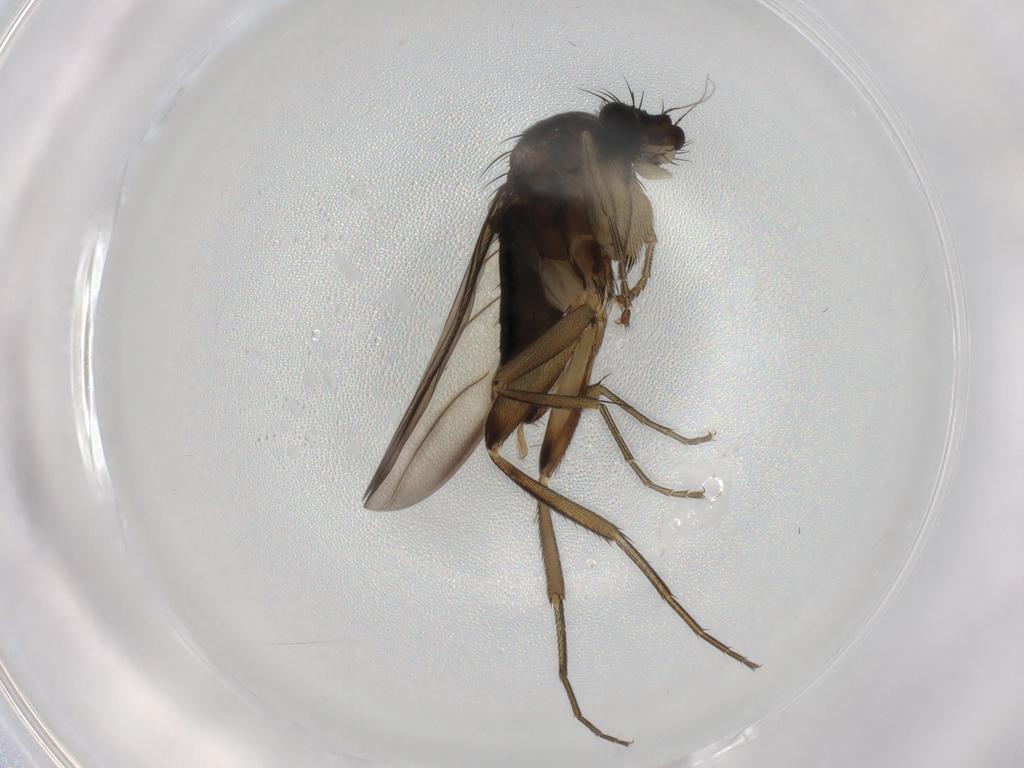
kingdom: Animalia
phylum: Arthropoda
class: Insecta
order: Diptera
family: Phoridae
